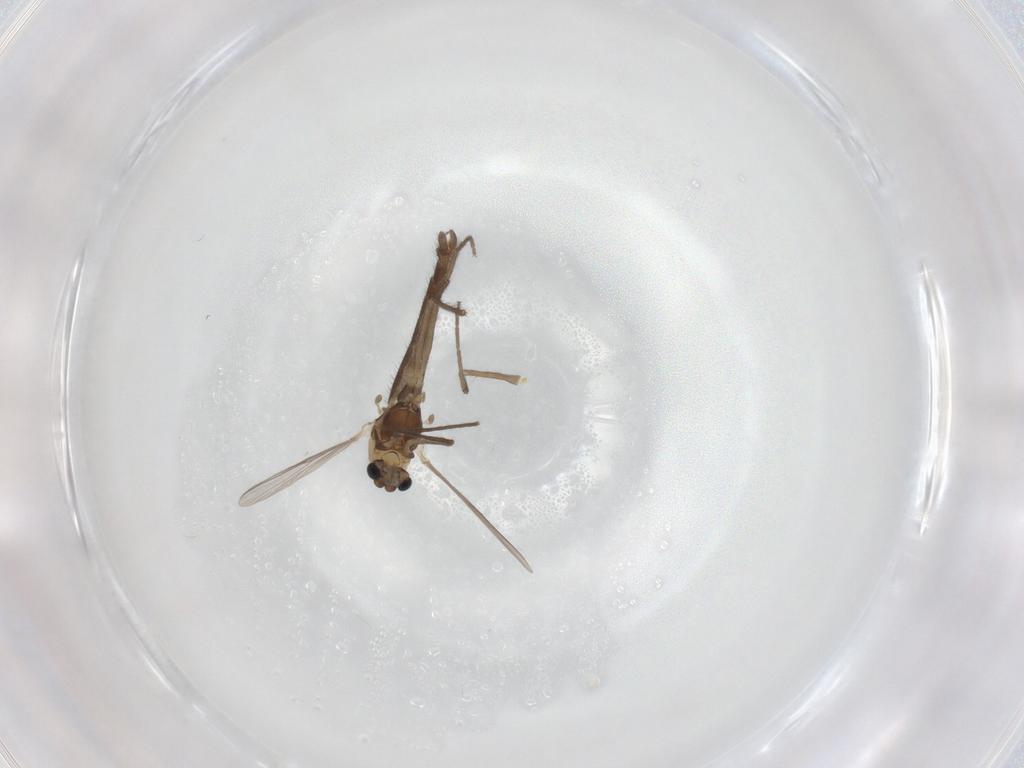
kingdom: Animalia
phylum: Arthropoda
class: Insecta
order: Diptera
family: Chironomidae
